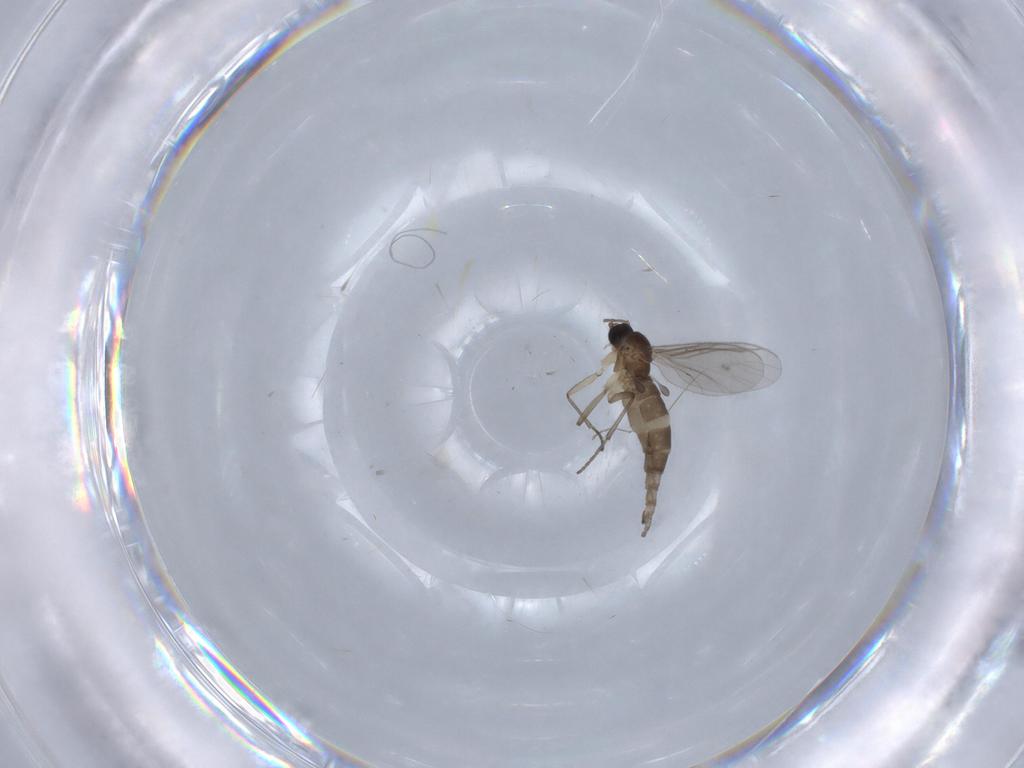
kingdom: Animalia
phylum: Arthropoda
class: Insecta
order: Diptera
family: Sciaridae
